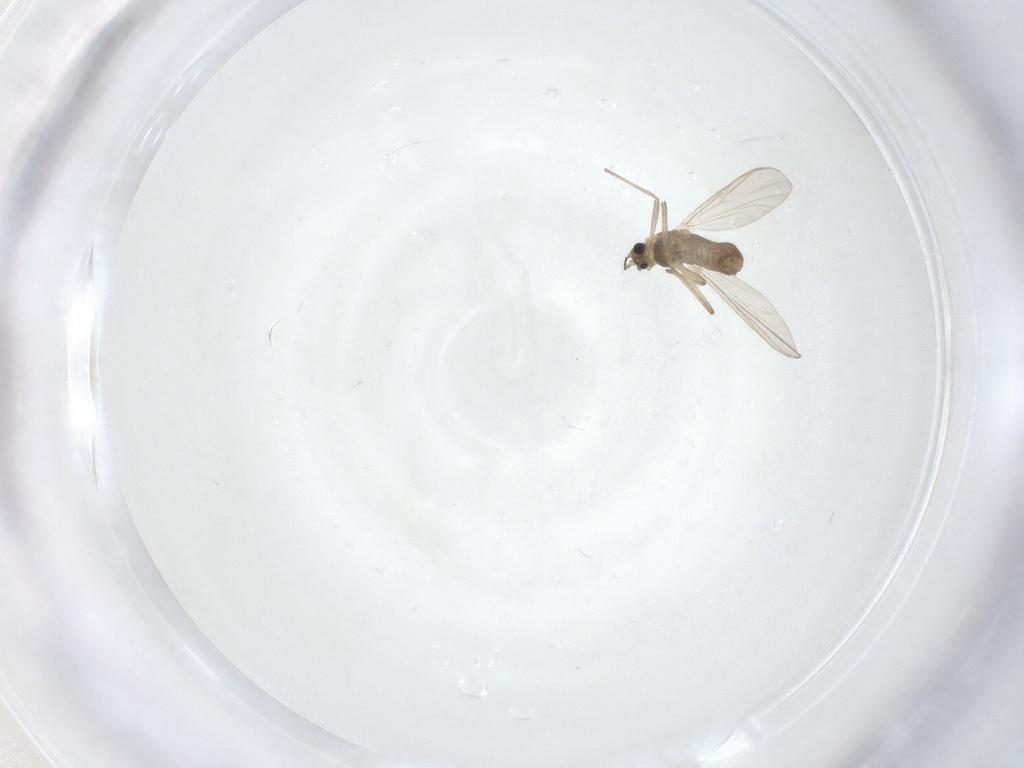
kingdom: Animalia
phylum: Arthropoda
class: Insecta
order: Diptera
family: Chironomidae
